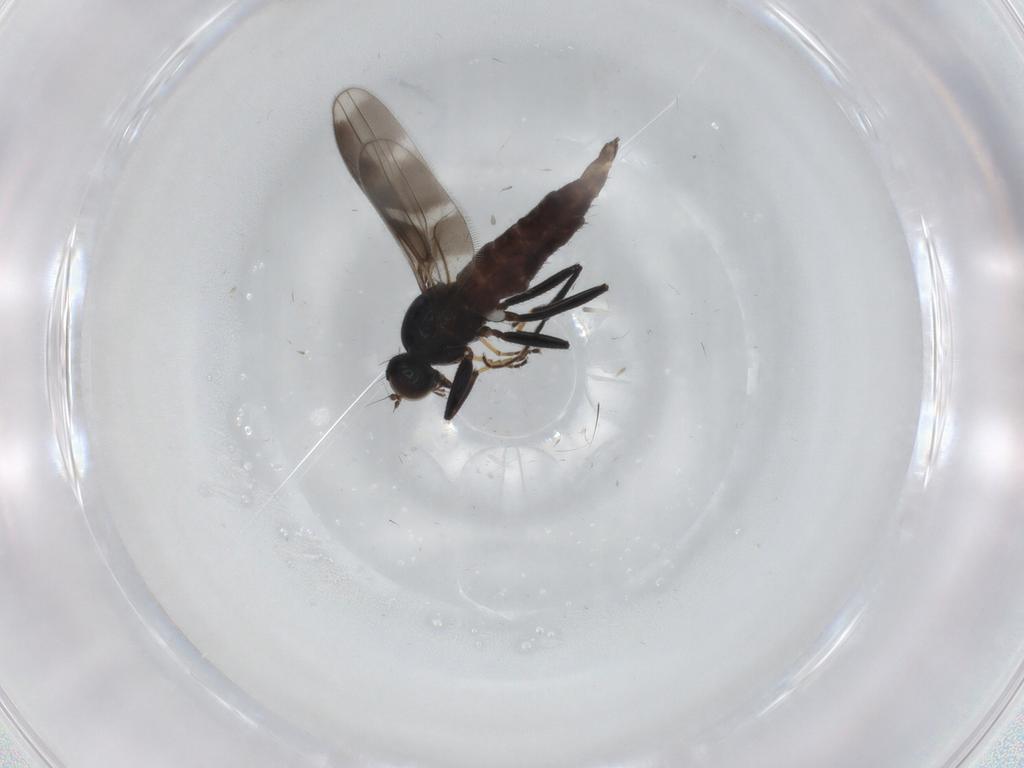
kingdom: Animalia
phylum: Arthropoda
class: Insecta
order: Diptera
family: Hybotidae
